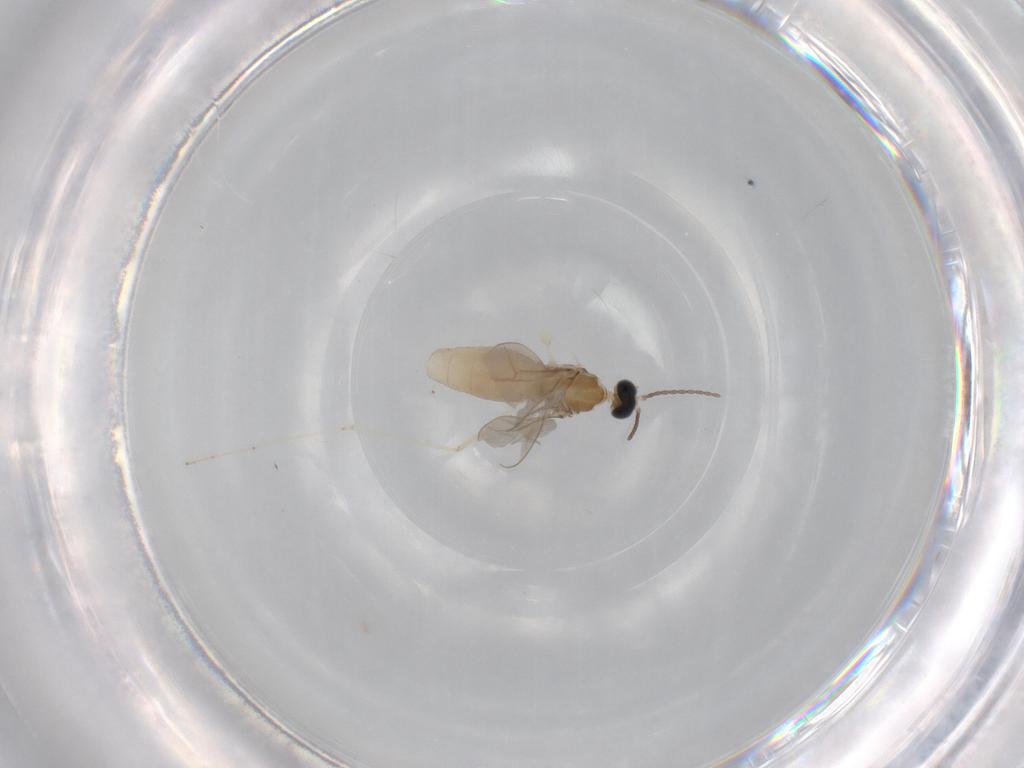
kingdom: Animalia
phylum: Arthropoda
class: Insecta
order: Diptera
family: Cecidomyiidae
